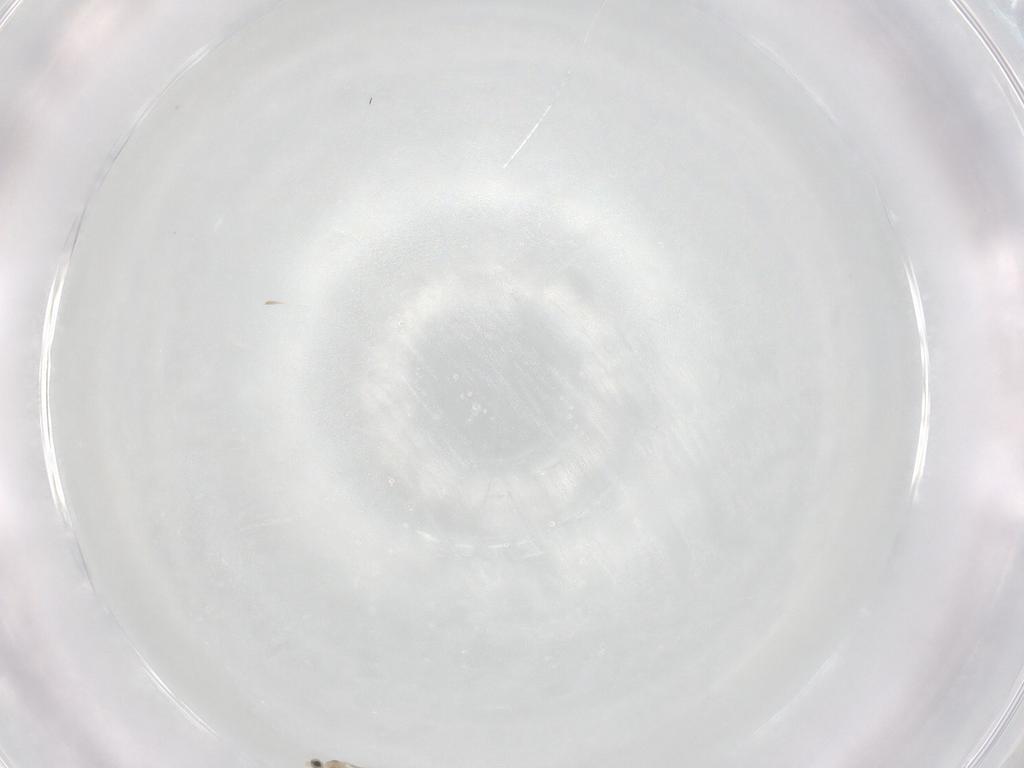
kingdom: Animalia
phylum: Arthropoda
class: Insecta
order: Diptera
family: Cecidomyiidae
